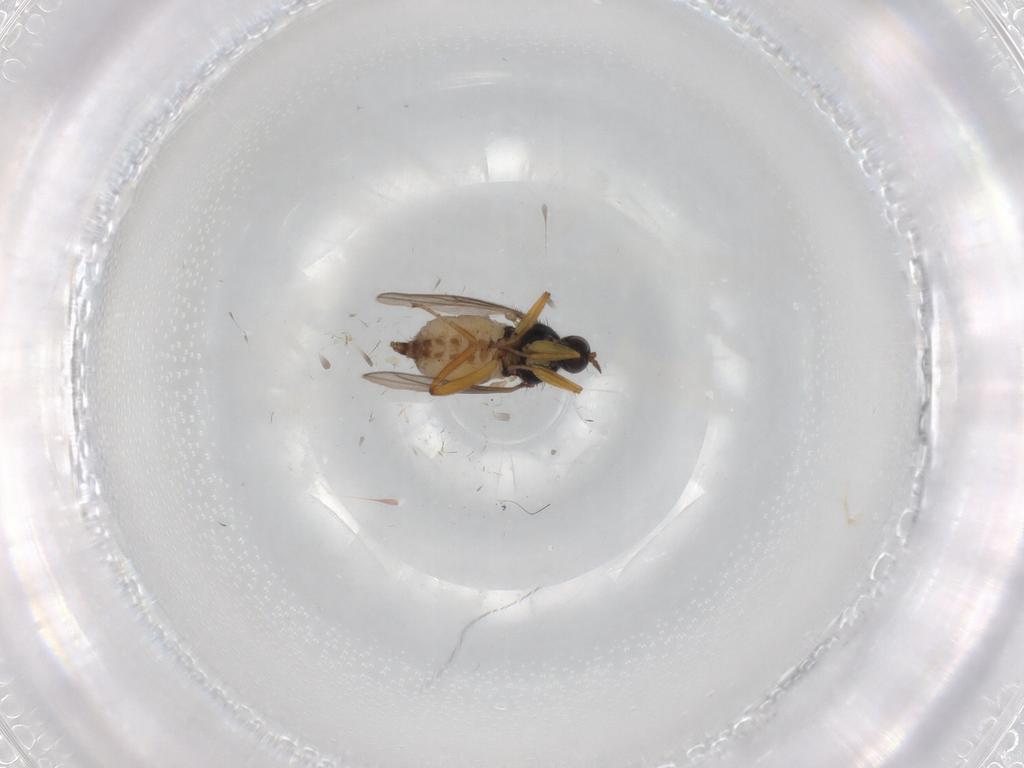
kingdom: Animalia
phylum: Arthropoda
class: Insecta
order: Diptera
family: Hybotidae
